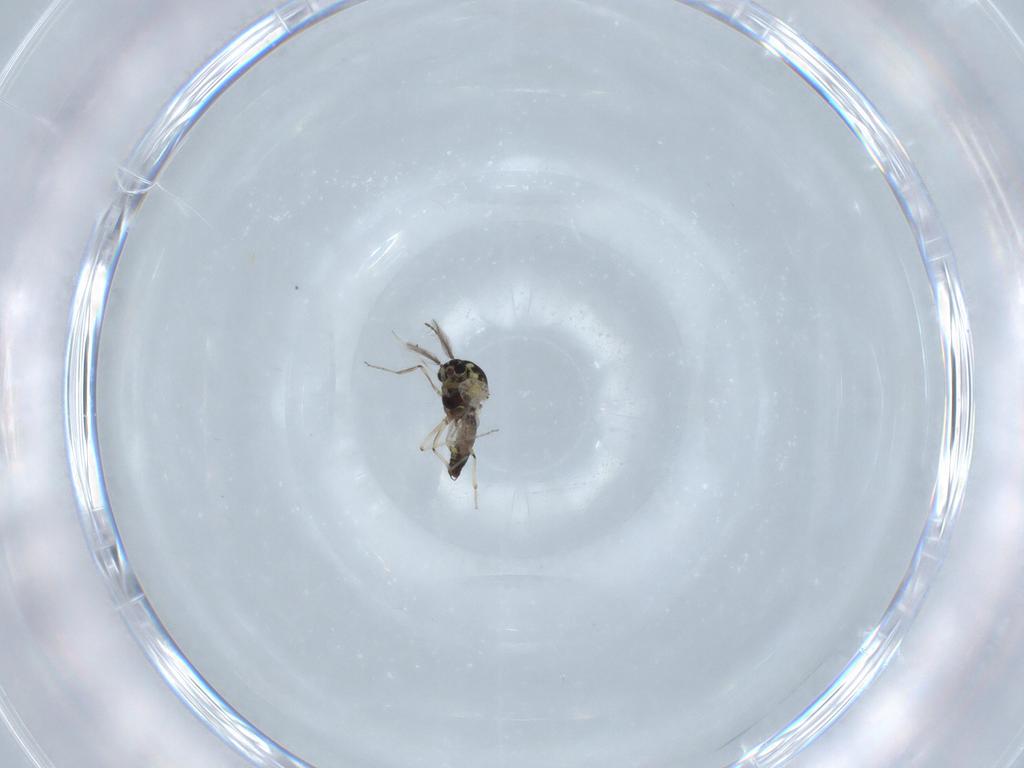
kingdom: Animalia
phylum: Arthropoda
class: Insecta
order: Diptera
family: Ceratopogonidae
